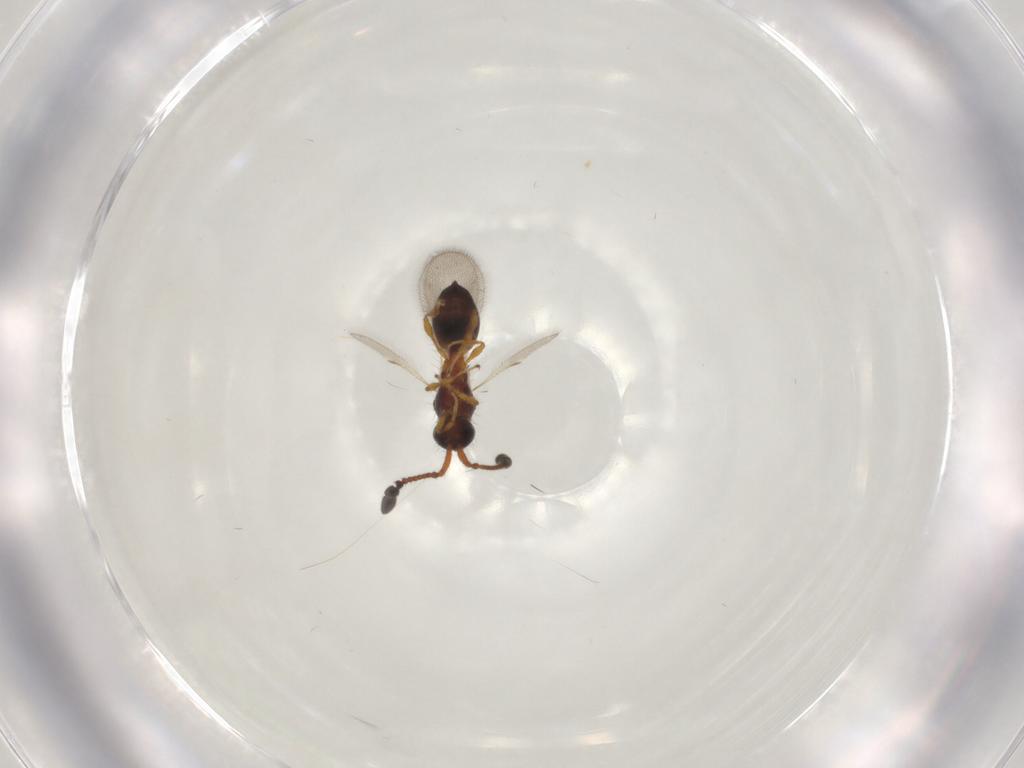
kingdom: Animalia
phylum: Arthropoda
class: Insecta
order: Hymenoptera
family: Diapriidae
